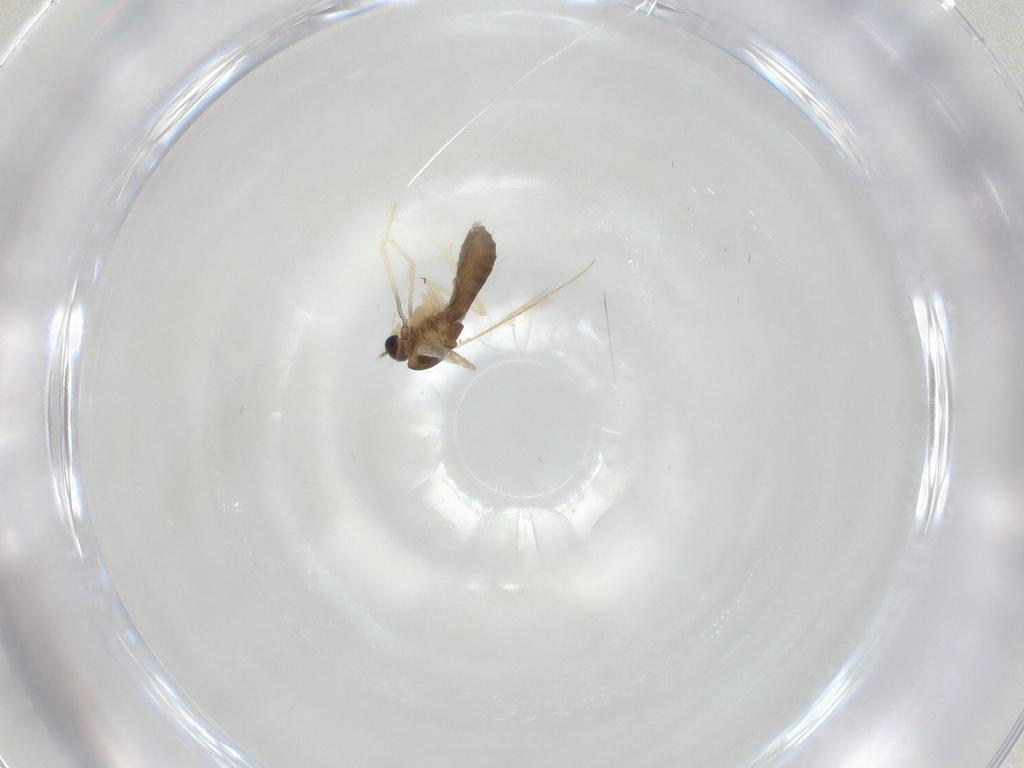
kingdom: Animalia
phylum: Arthropoda
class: Insecta
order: Diptera
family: Chironomidae
